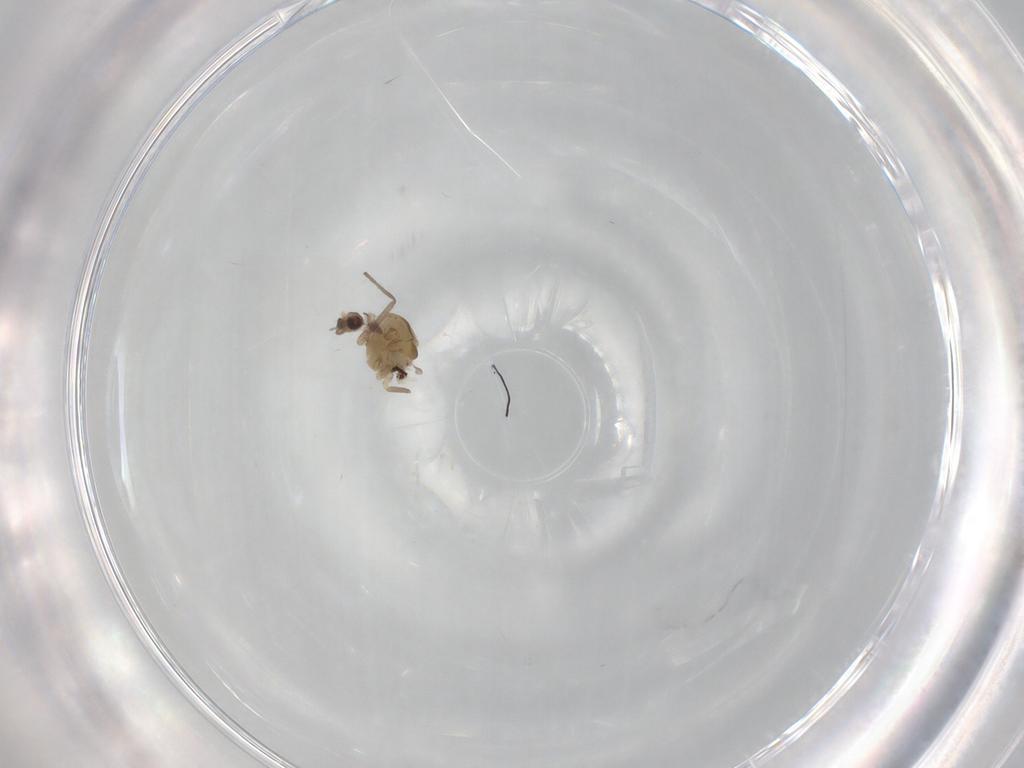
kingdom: Animalia
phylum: Arthropoda
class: Insecta
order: Diptera
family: Chironomidae
